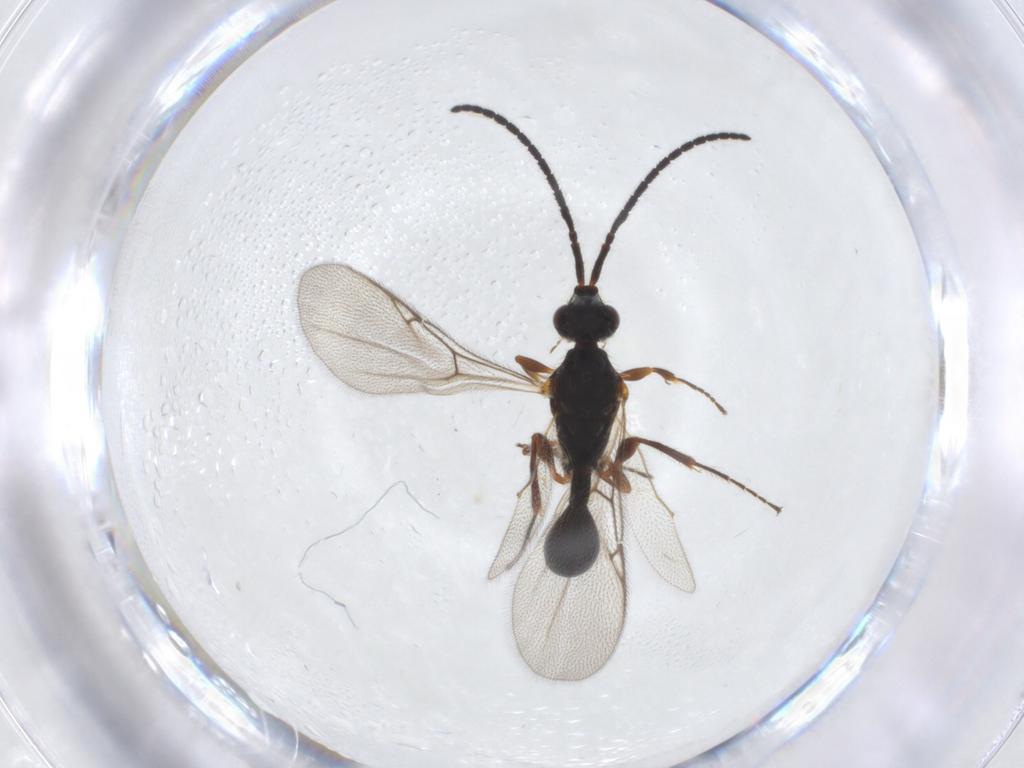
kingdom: Animalia
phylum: Arthropoda
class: Insecta
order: Hymenoptera
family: Diapriidae
